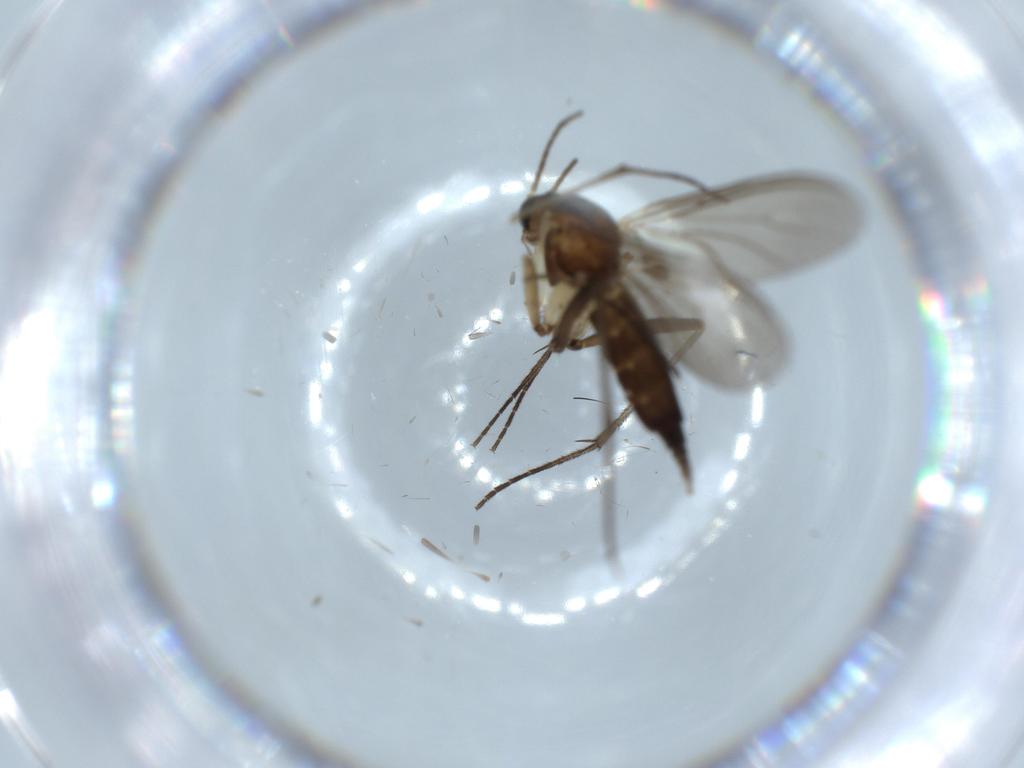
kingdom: Animalia
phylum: Arthropoda
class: Insecta
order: Diptera
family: Sciaridae
